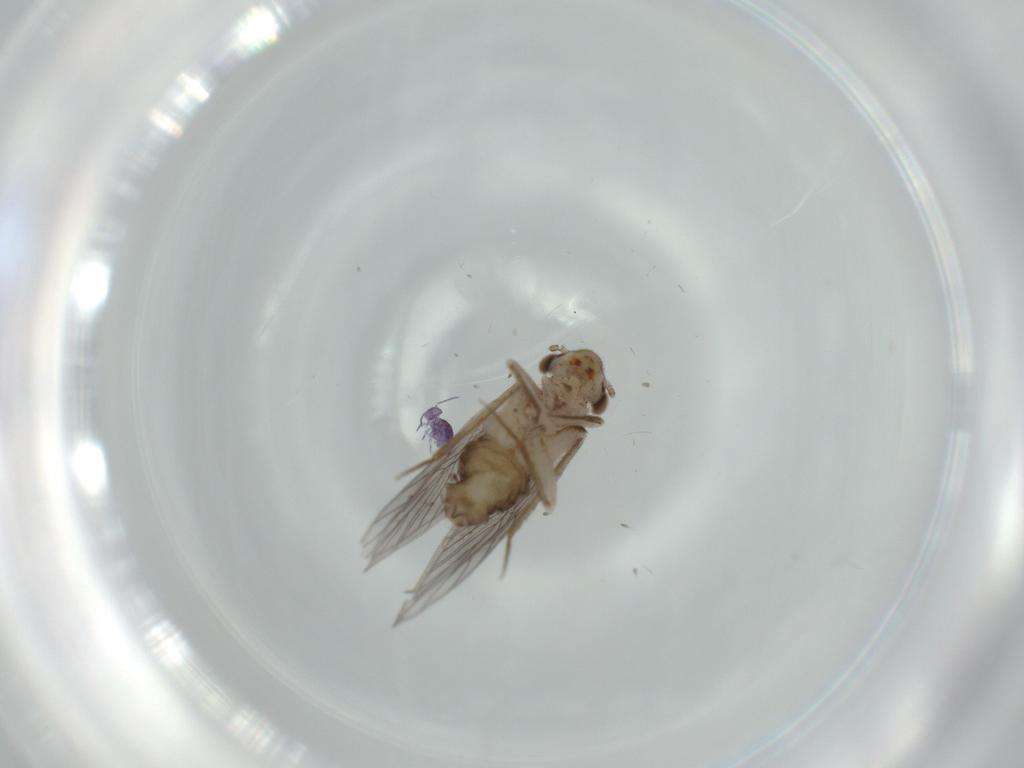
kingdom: Animalia
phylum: Arthropoda
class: Insecta
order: Psocodea
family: Lepidopsocidae
